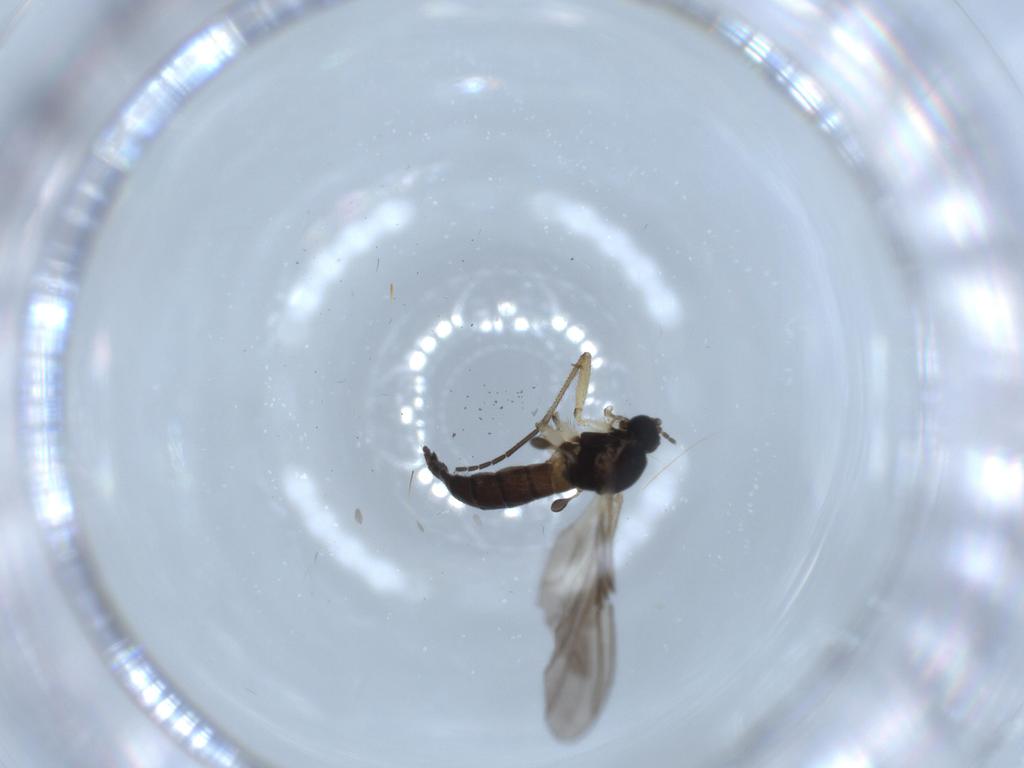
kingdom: Animalia
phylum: Arthropoda
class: Insecta
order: Diptera
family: Sciaridae
